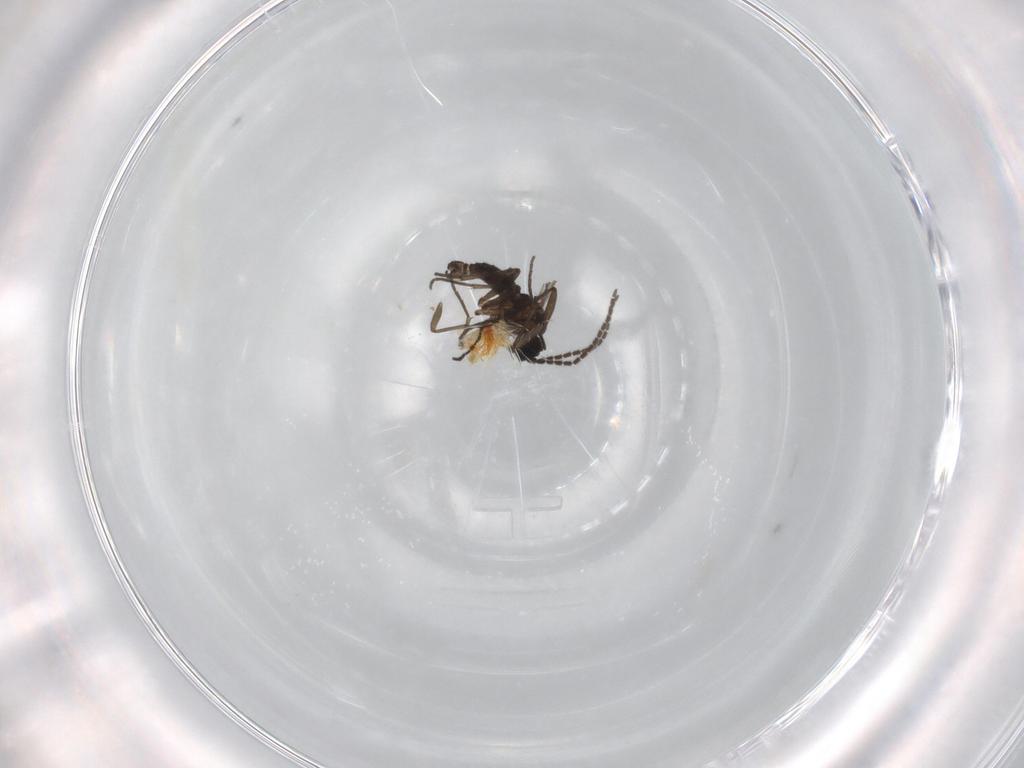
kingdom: Animalia
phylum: Arthropoda
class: Insecta
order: Diptera
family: Sciaridae
